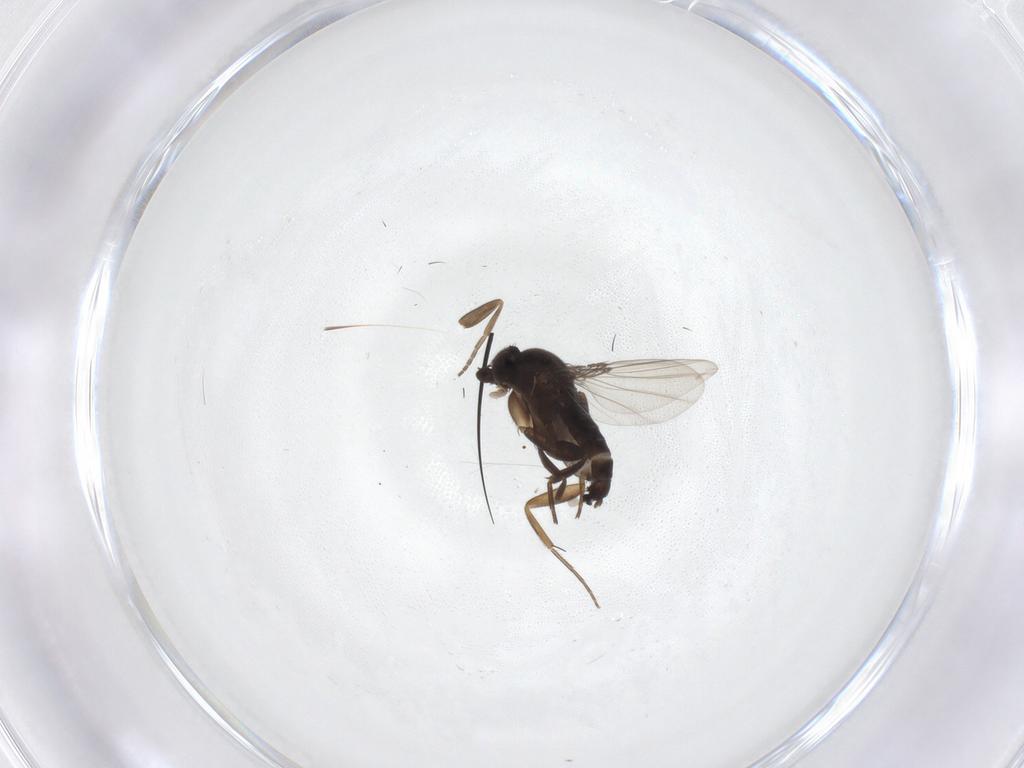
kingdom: Animalia
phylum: Arthropoda
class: Insecta
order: Diptera
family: Phoridae
